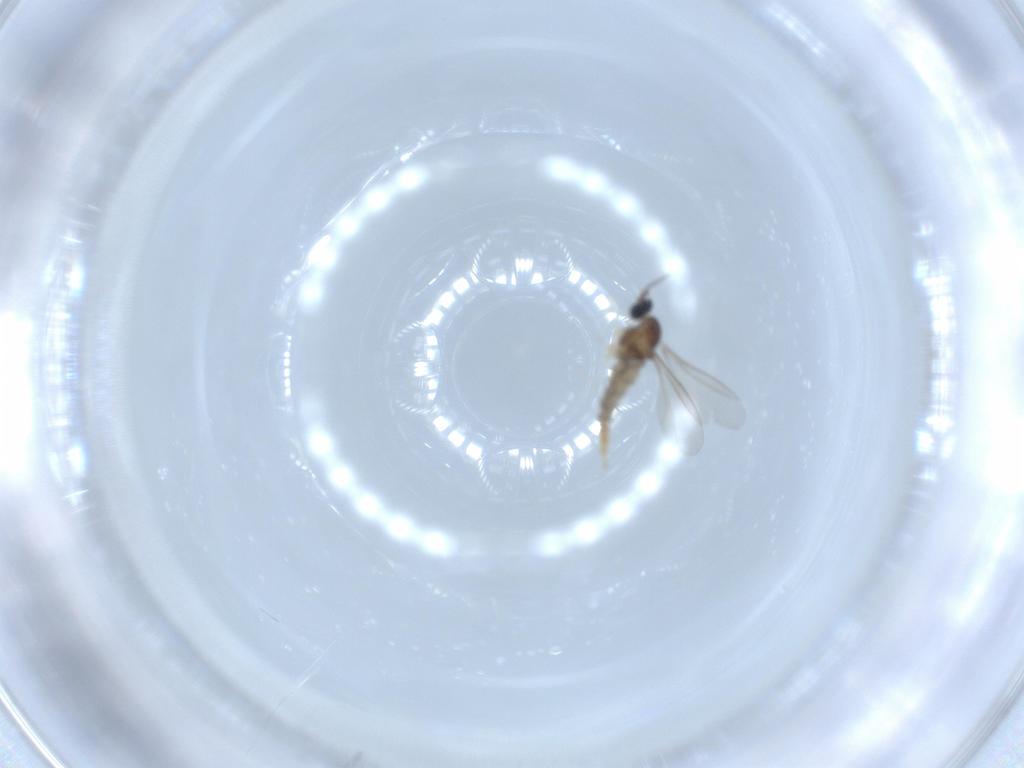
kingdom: Animalia
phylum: Arthropoda
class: Insecta
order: Diptera
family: Cecidomyiidae
